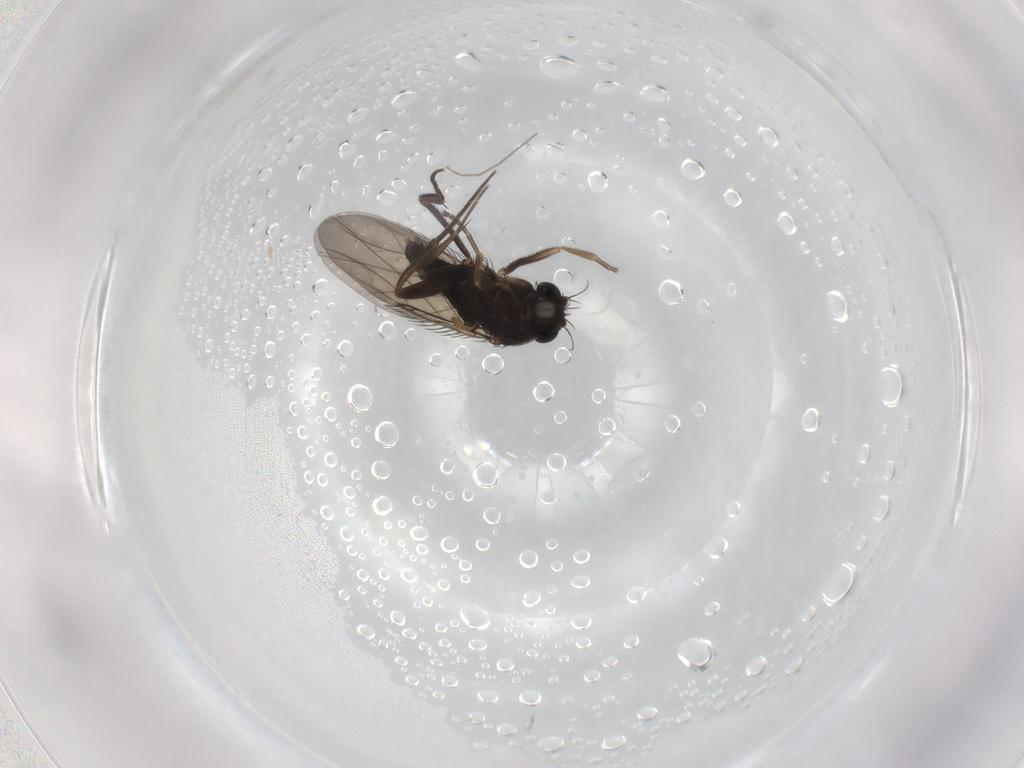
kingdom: Animalia
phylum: Arthropoda
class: Insecta
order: Diptera
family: Phoridae
